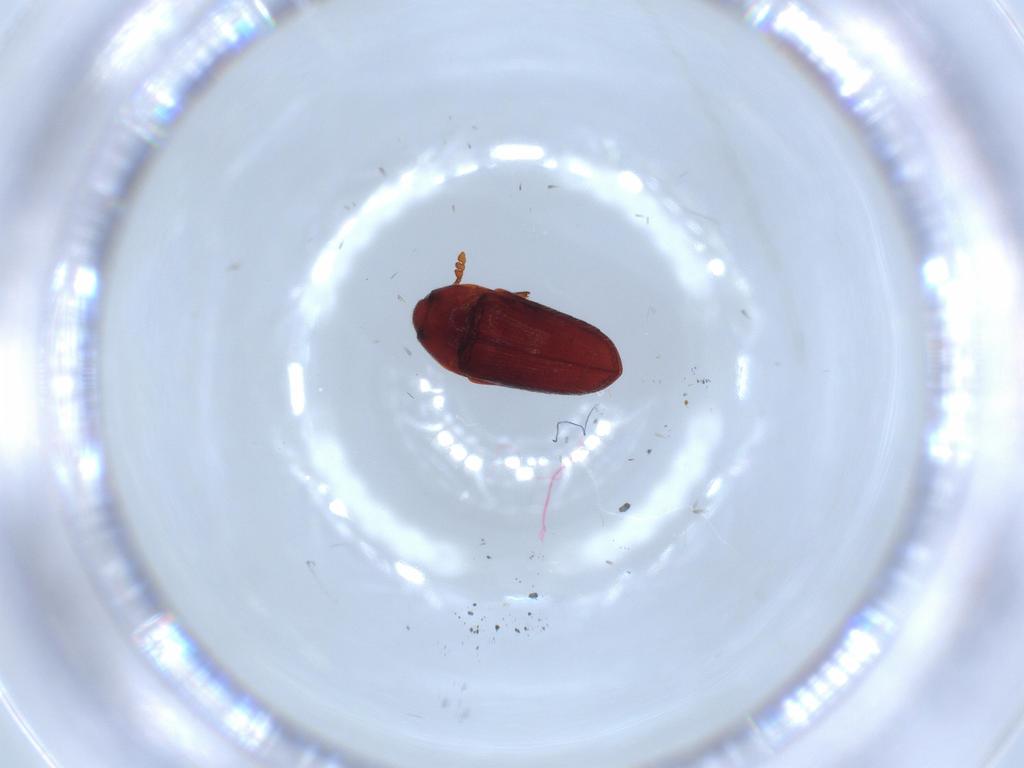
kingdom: Animalia
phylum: Arthropoda
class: Insecta
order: Coleoptera
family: Throscidae
